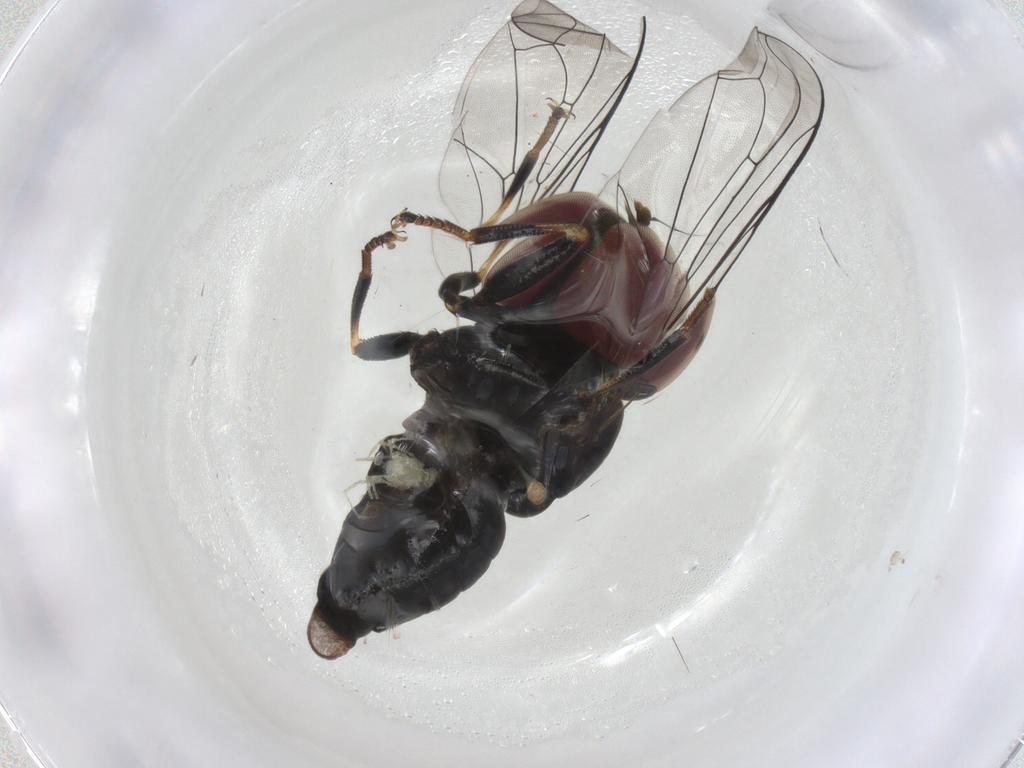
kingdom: Animalia
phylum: Arthropoda
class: Insecta
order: Diptera
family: Pipunculidae
